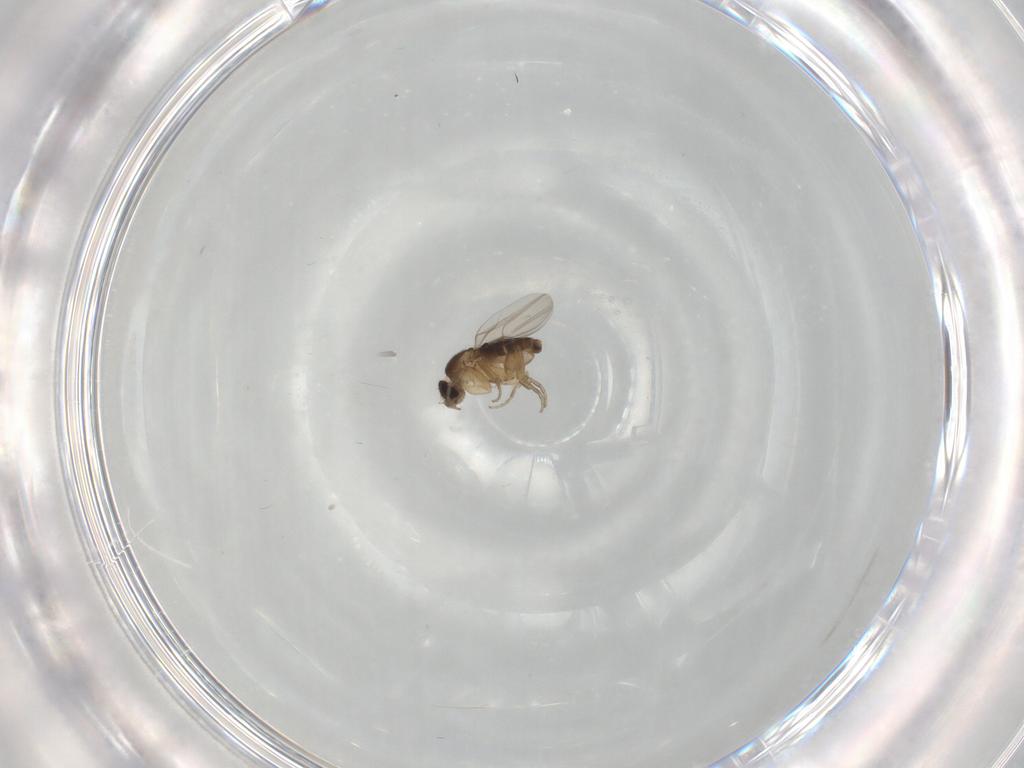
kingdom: Animalia
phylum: Arthropoda
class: Insecta
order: Diptera
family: Phoridae
